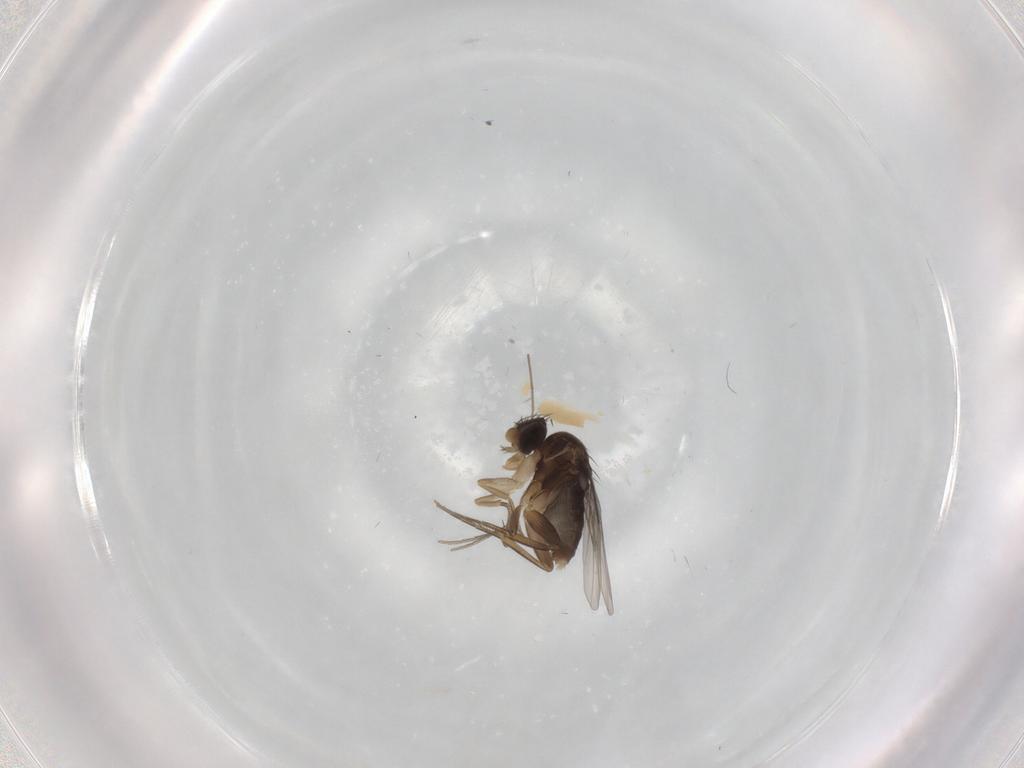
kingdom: Animalia
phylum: Arthropoda
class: Insecta
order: Diptera
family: Phoridae
